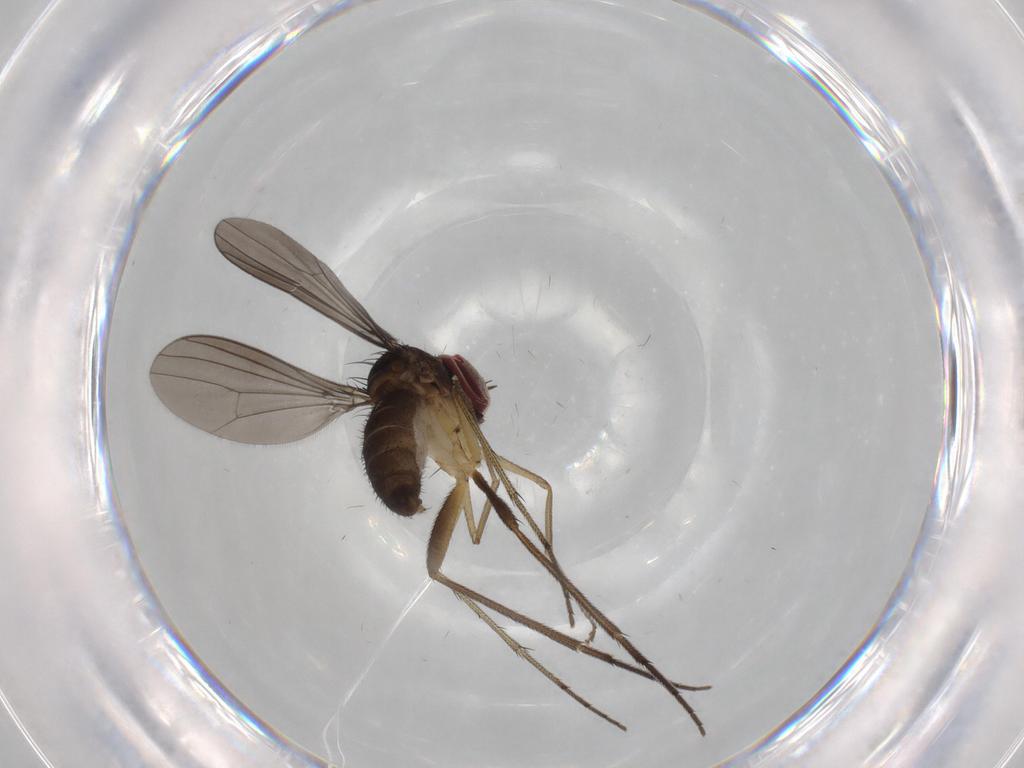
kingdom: Animalia
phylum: Arthropoda
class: Insecta
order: Diptera
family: Dolichopodidae
